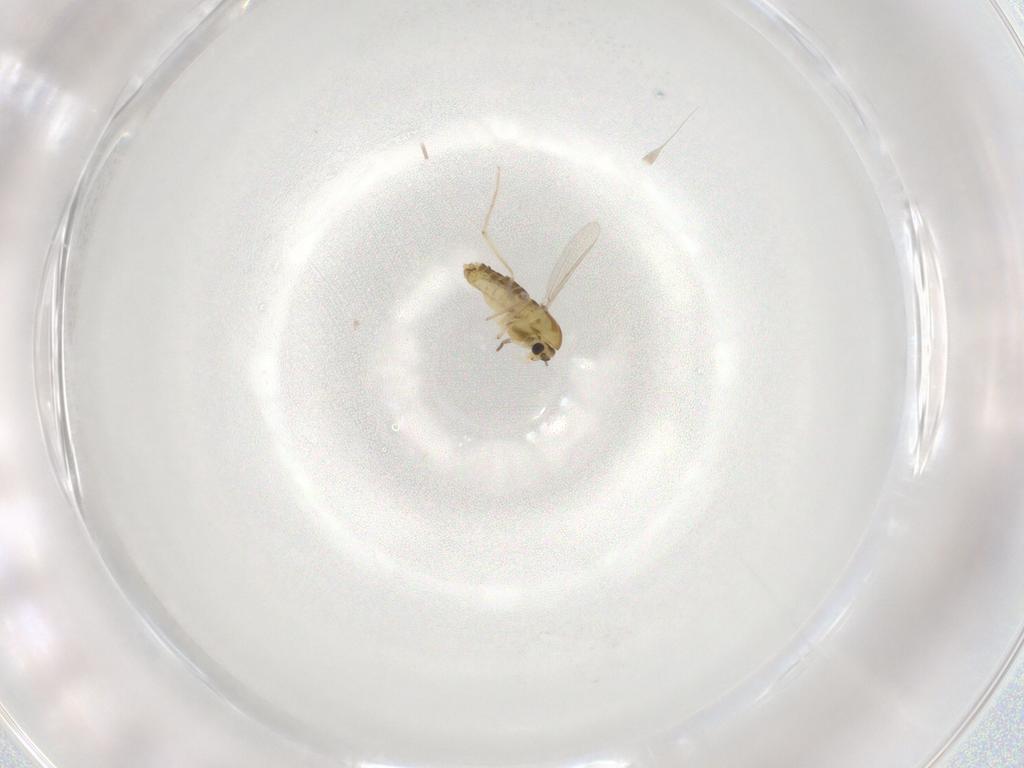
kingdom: Animalia
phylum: Arthropoda
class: Insecta
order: Diptera
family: Chironomidae
